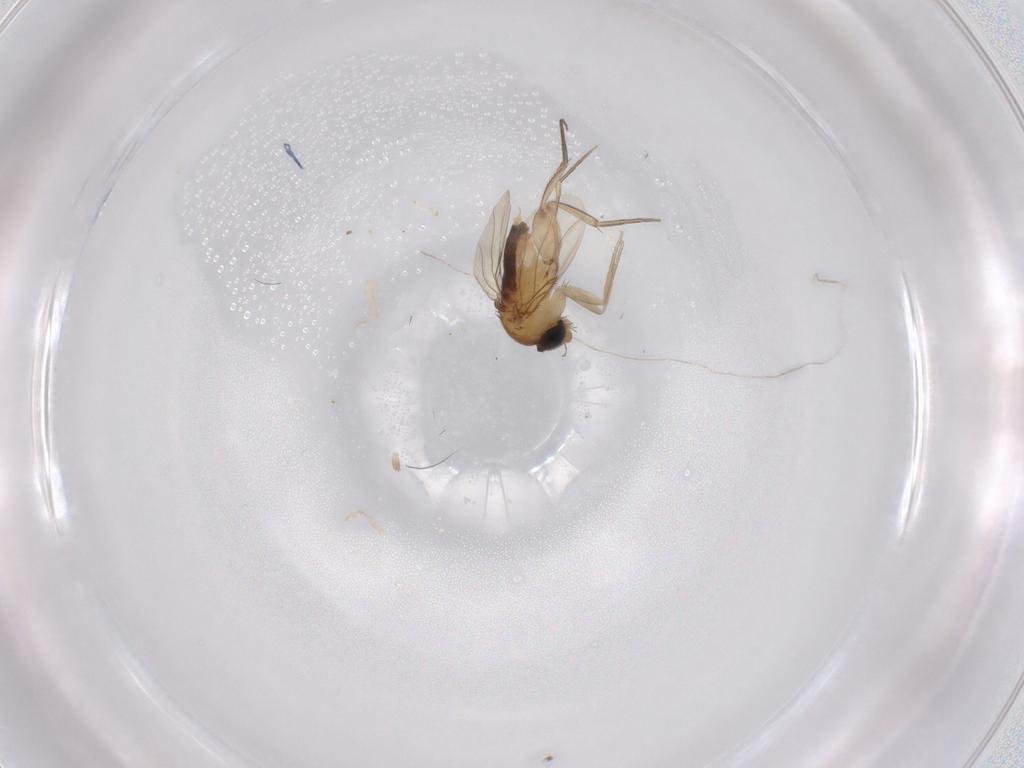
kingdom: Animalia
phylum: Arthropoda
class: Insecta
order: Diptera
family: Phoridae
